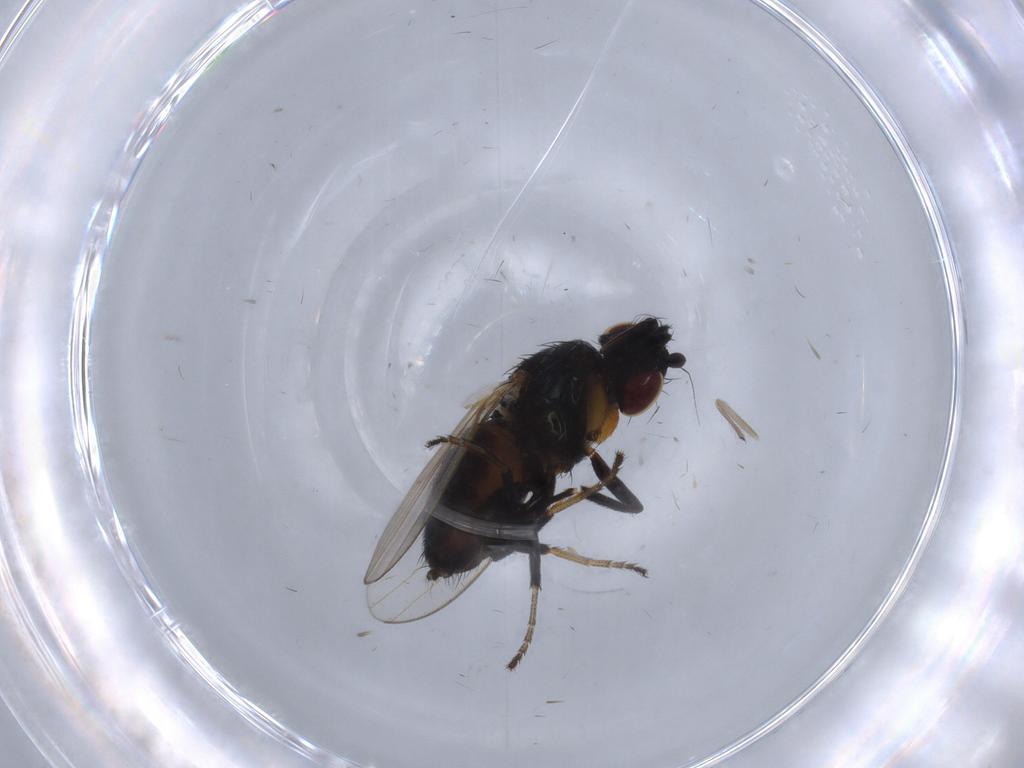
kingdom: Animalia
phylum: Arthropoda
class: Insecta
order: Diptera
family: Milichiidae
